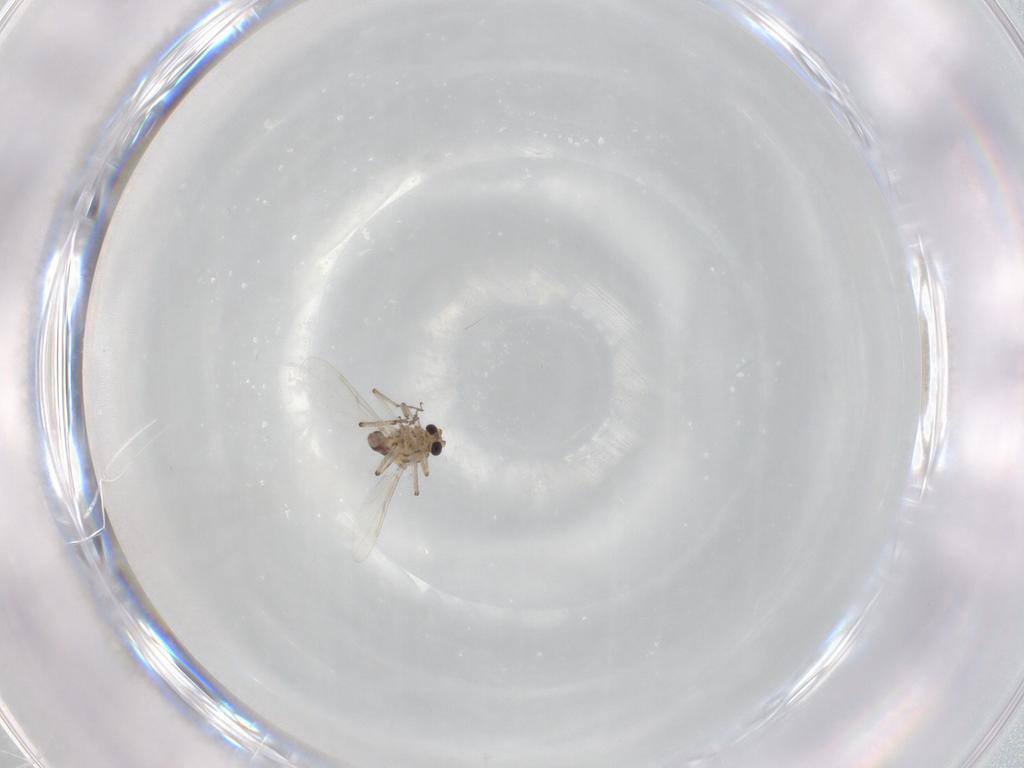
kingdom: Animalia
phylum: Arthropoda
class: Insecta
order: Diptera
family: Ceratopogonidae
